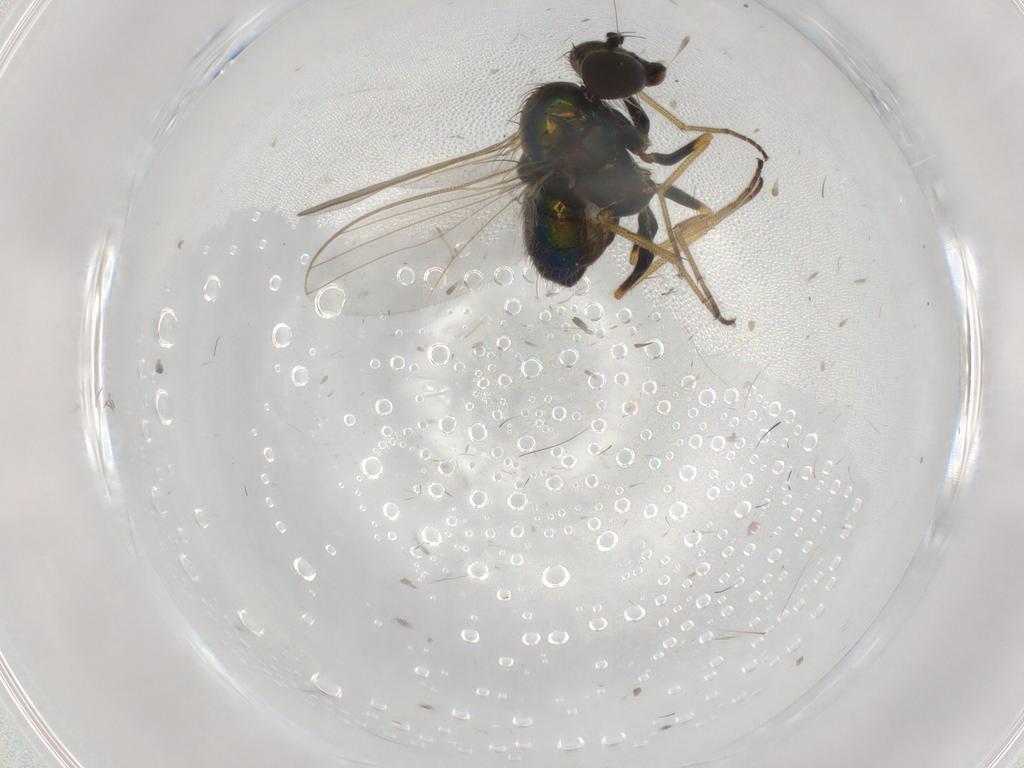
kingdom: Animalia
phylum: Arthropoda
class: Insecta
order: Diptera
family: Dolichopodidae
